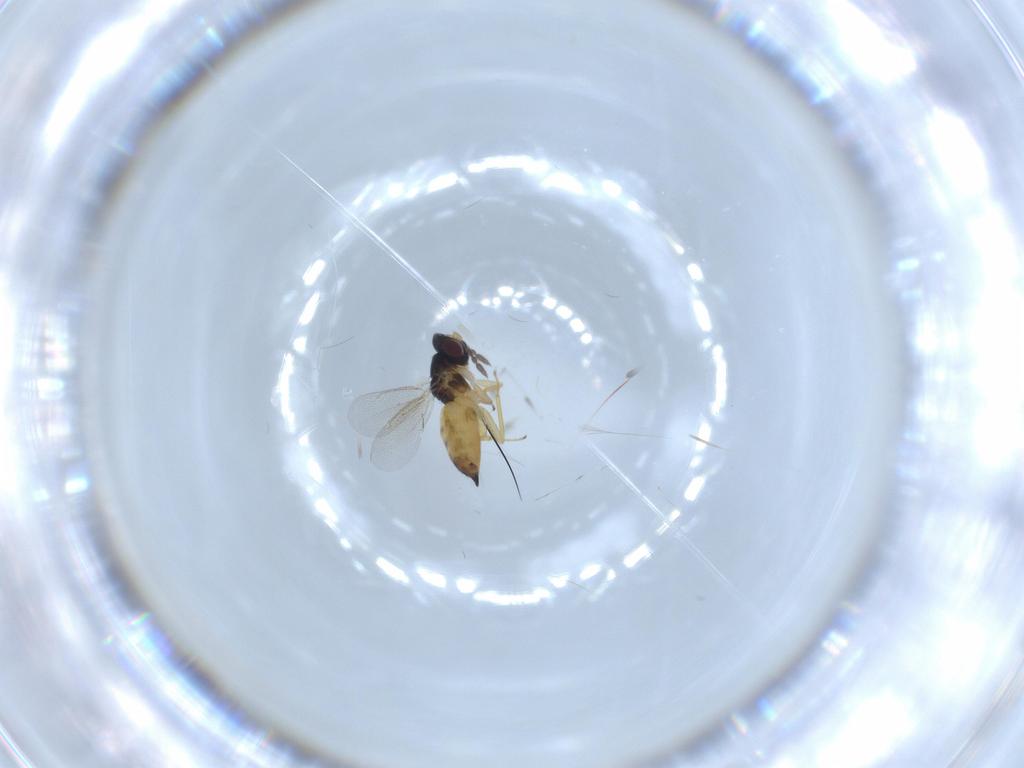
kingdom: Animalia
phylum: Arthropoda
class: Insecta
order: Hymenoptera
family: Eulophidae
